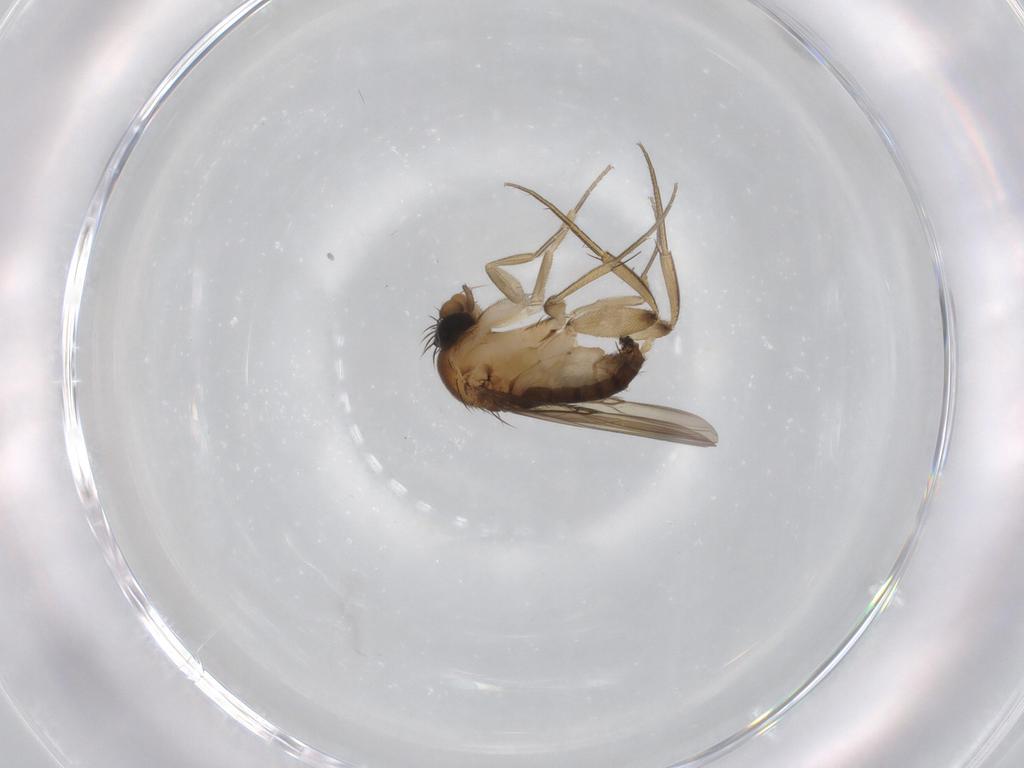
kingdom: Animalia
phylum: Arthropoda
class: Insecta
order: Diptera
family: Phoridae
